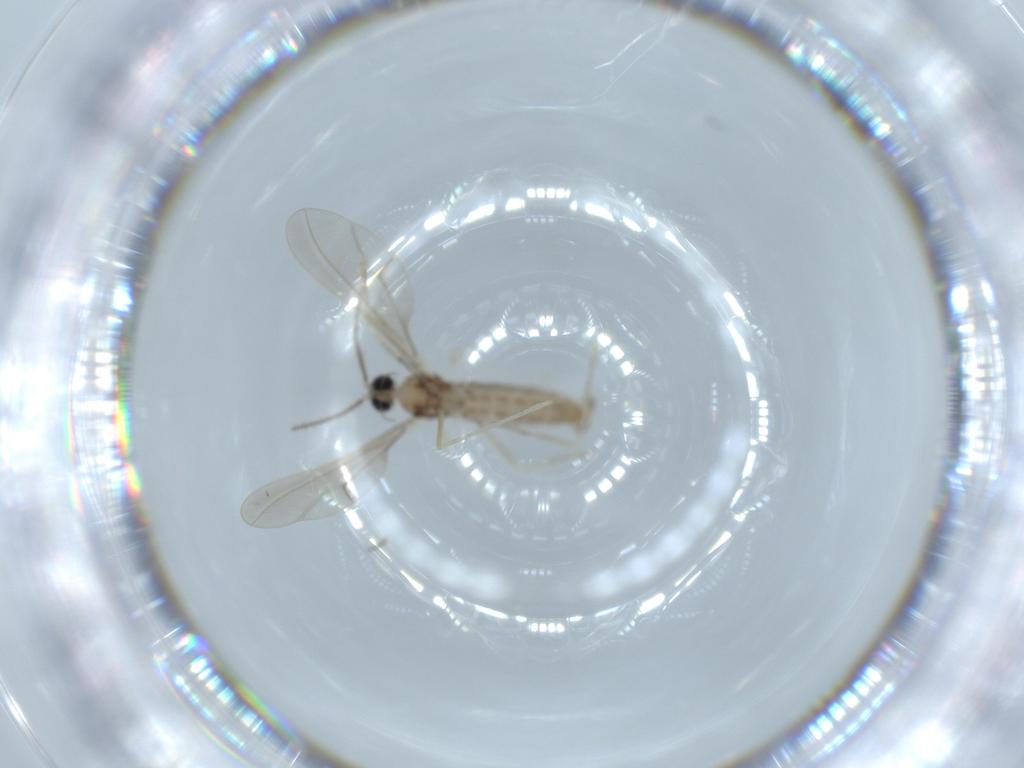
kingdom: Animalia
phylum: Arthropoda
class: Insecta
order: Diptera
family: Cecidomyiidae
